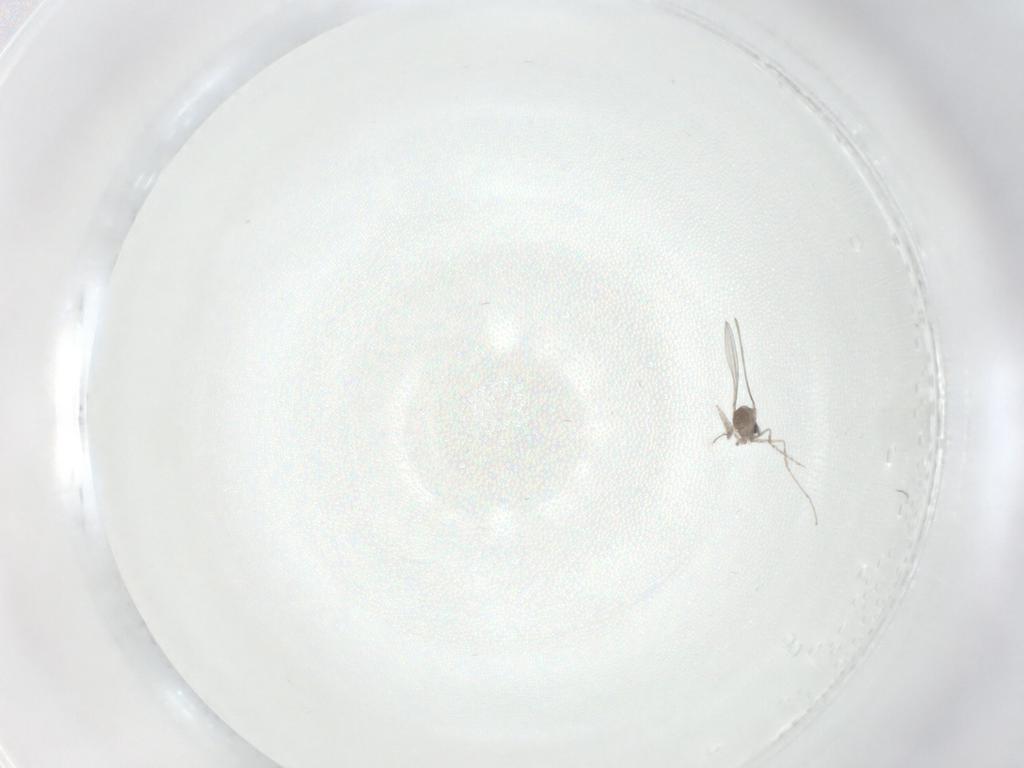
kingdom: Animalia
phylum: Arthropoda
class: Insecta
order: Diptera
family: Cecidomyiidae
